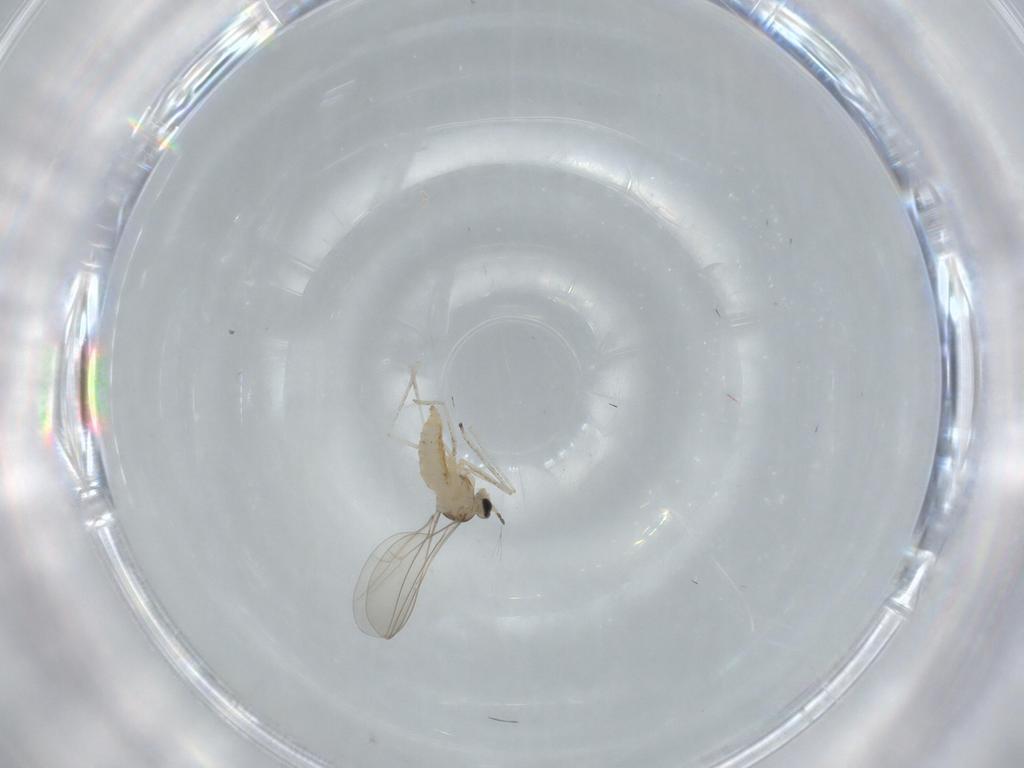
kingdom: Animalia
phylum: Arthropoda
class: Insecta
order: Diptera
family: Cecidomyiidae
